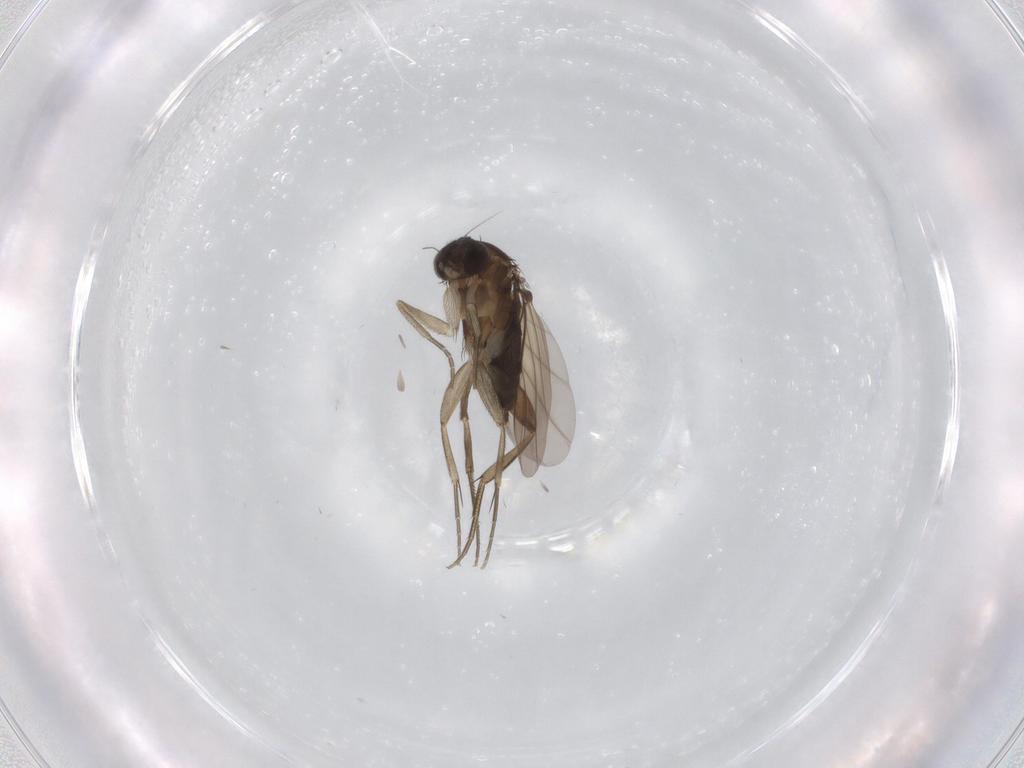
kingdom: Animalia
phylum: Arthropoda
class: Insecta
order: Diptera
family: Phoridae
